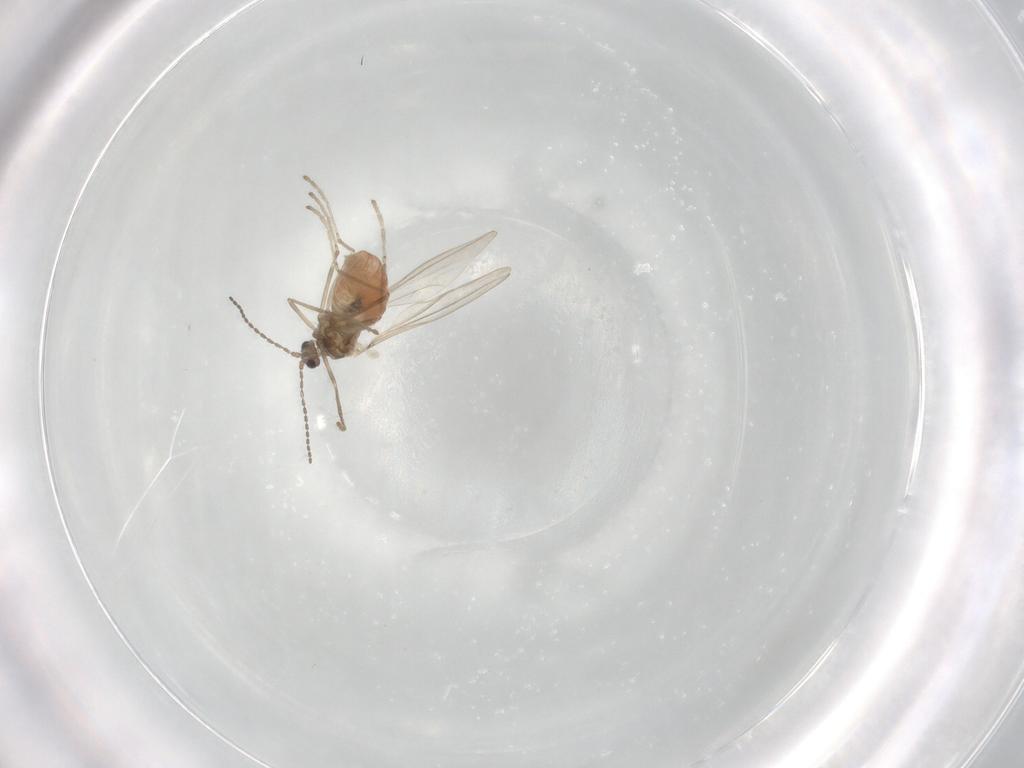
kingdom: Animalia
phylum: Arthropoda
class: Insecta
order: Diptera
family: Cecidomyiidae
